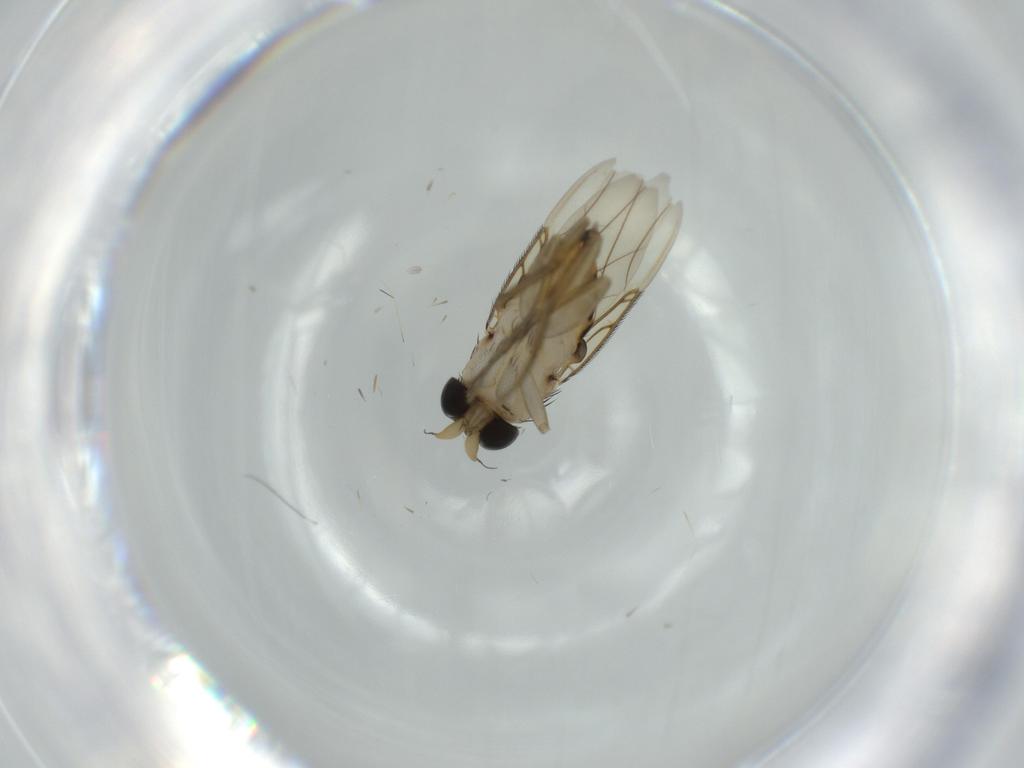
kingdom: Animalia
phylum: Arthropoda
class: Insecta
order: Diptera
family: Phoridae
